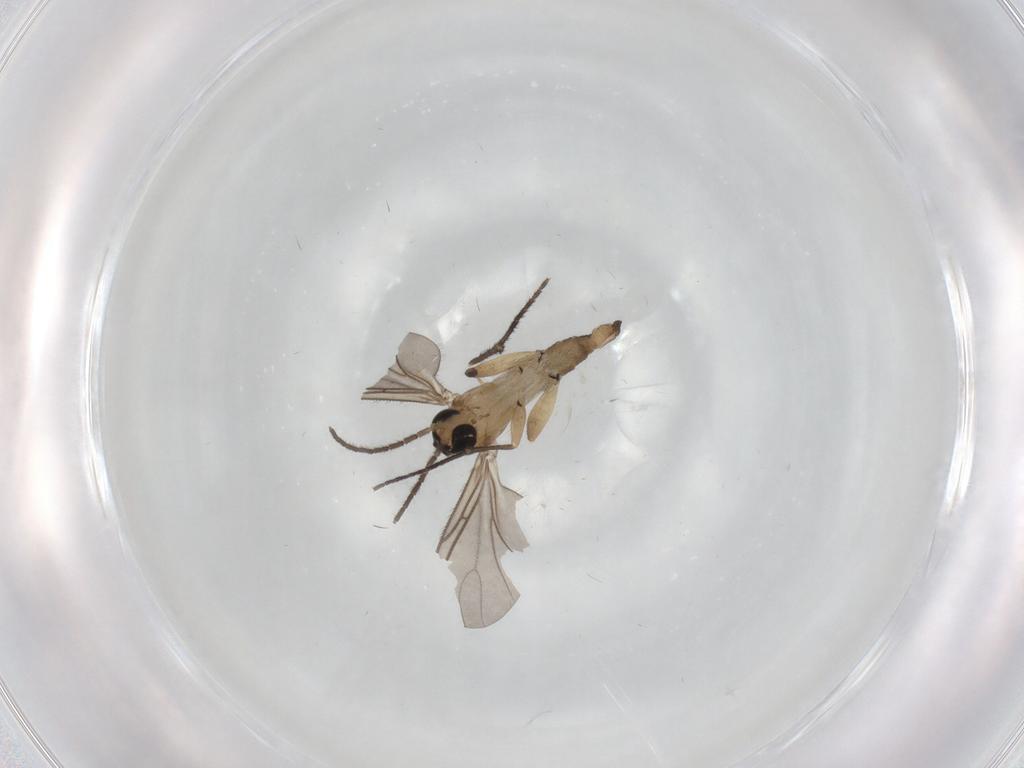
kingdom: Animalia
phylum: Arthropoda
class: Insecta
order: Diptera
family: Sciaridae
